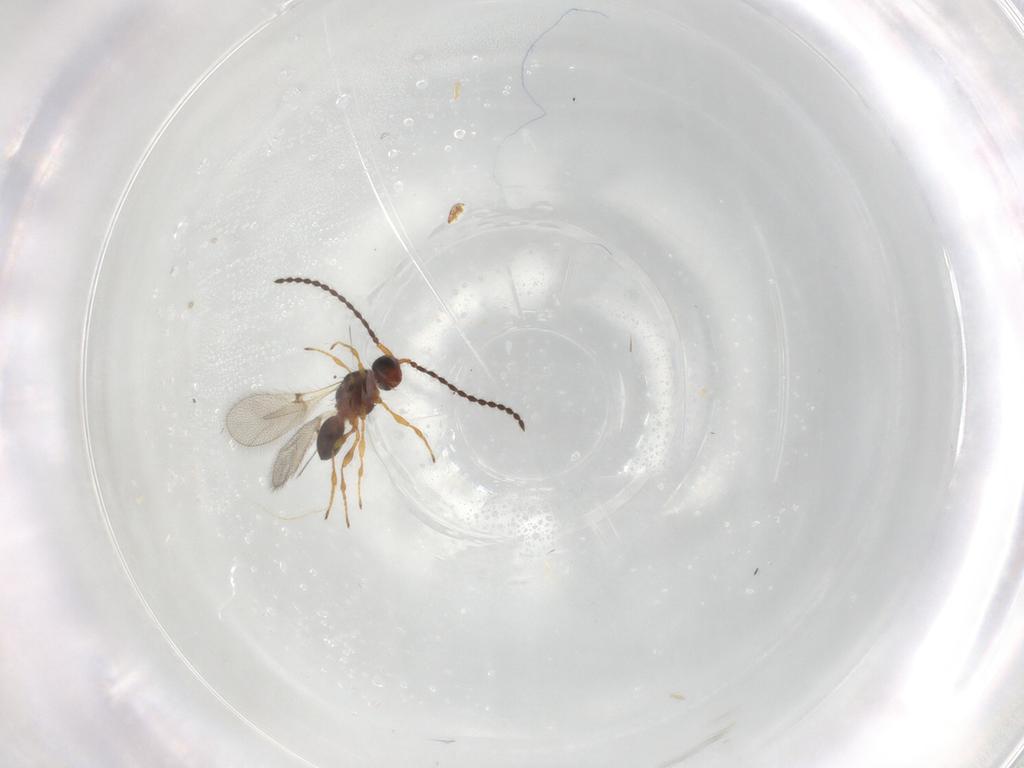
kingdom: Animalia
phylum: Arthropoda
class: Insecta
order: Hymenoptera
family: Diapriidae
